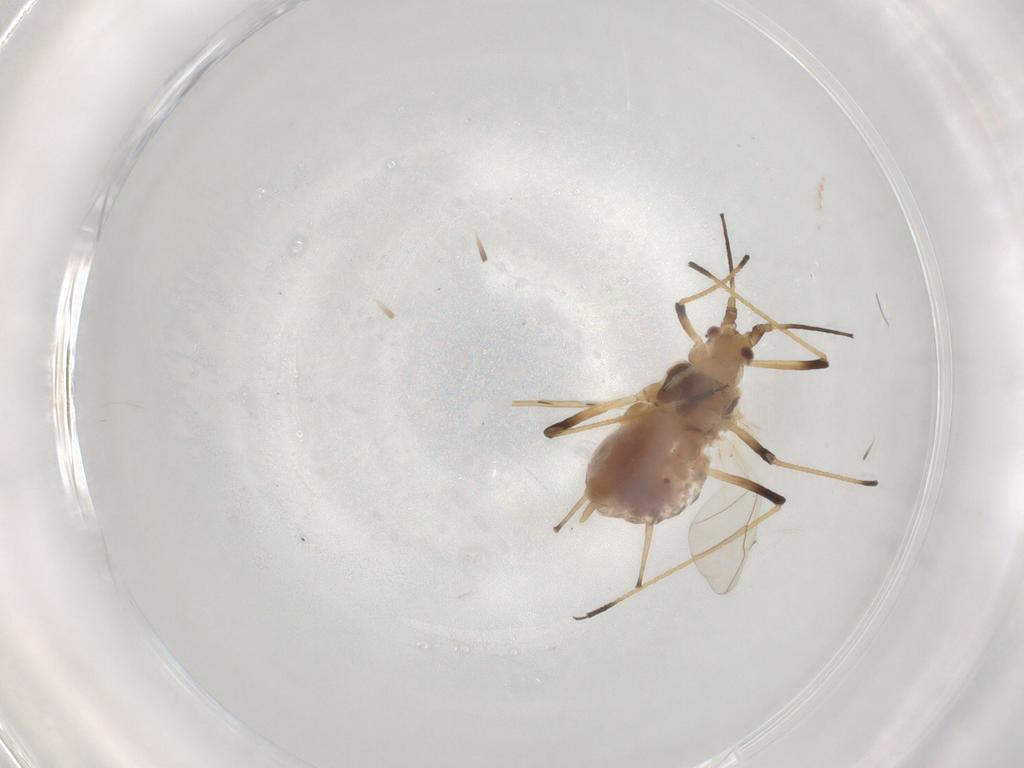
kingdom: Animalia
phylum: Arthropoda
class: Insecta
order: Hemiptera
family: Aphididae
